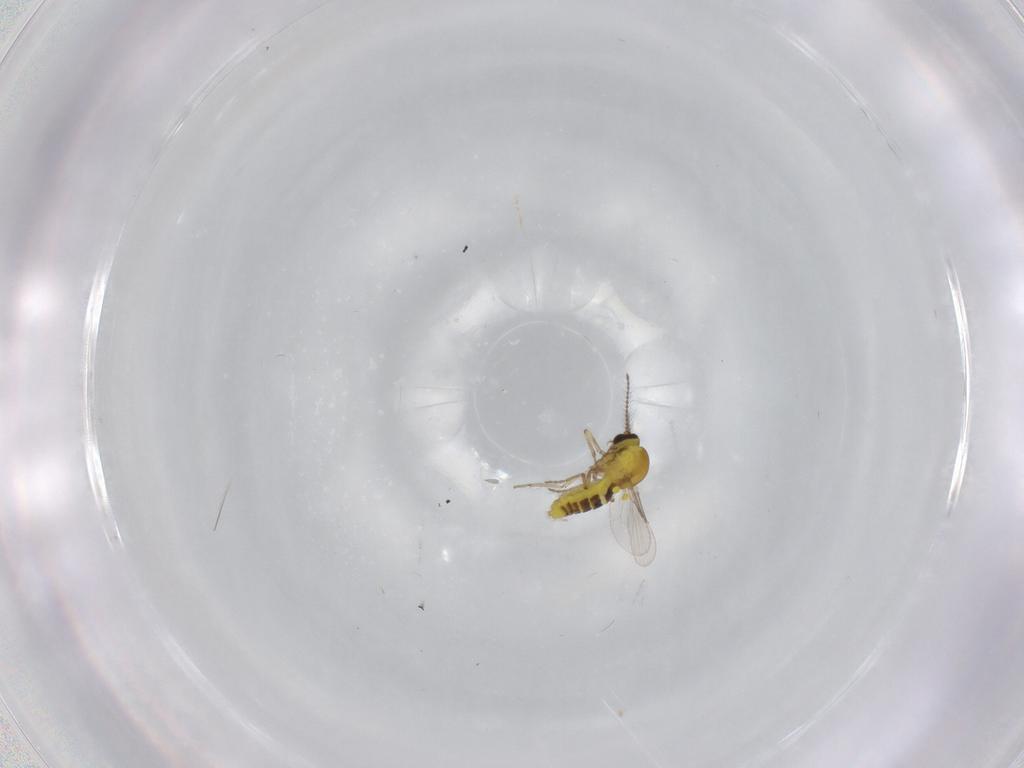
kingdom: Animalia
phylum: Arthropoda
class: Insecta
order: Diptera
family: Ceratopogonidae
